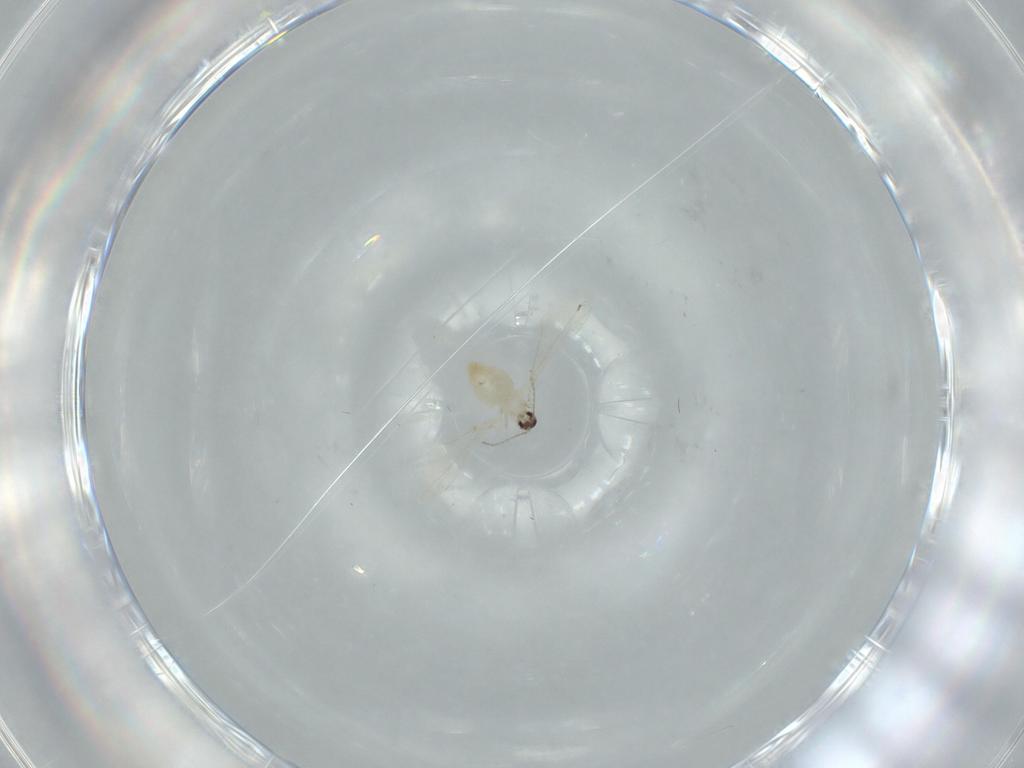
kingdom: Animalia
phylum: Arthropoda
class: Insecta
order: Diptera
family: Cecidomyiidae
